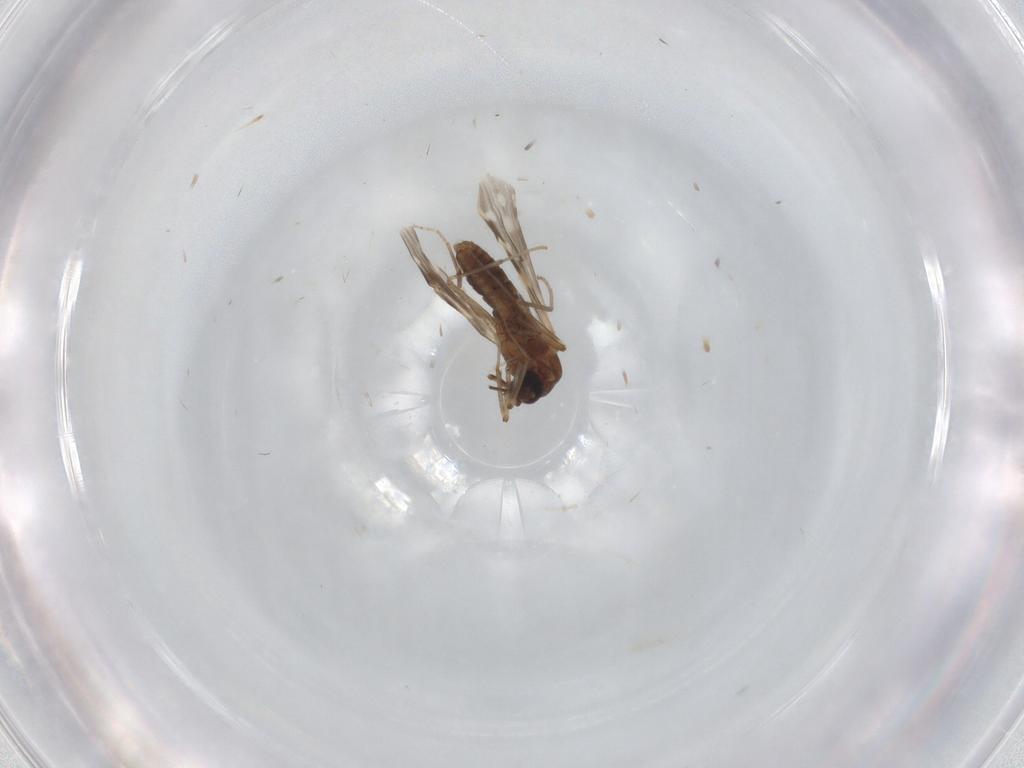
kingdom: Animalia
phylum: Arthropoda
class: Insecta
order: Diptera
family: Ceratopogonidae
